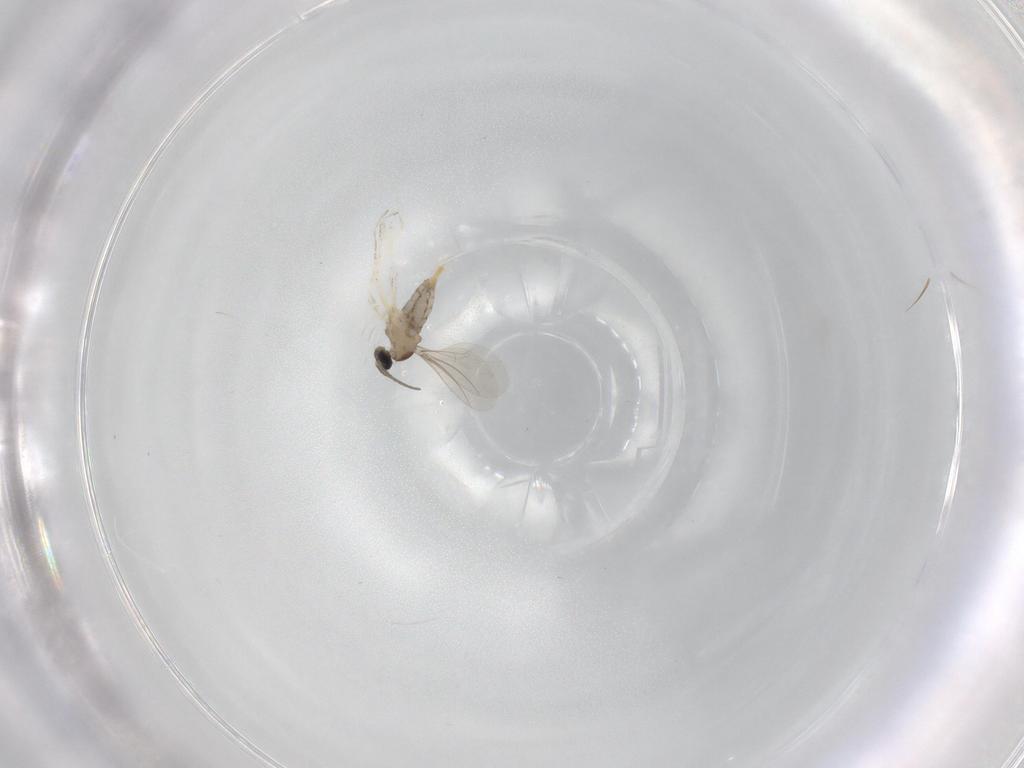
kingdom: Animalia
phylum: Arthropoda
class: Insecta
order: Diptera
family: Cecidomyiidae
